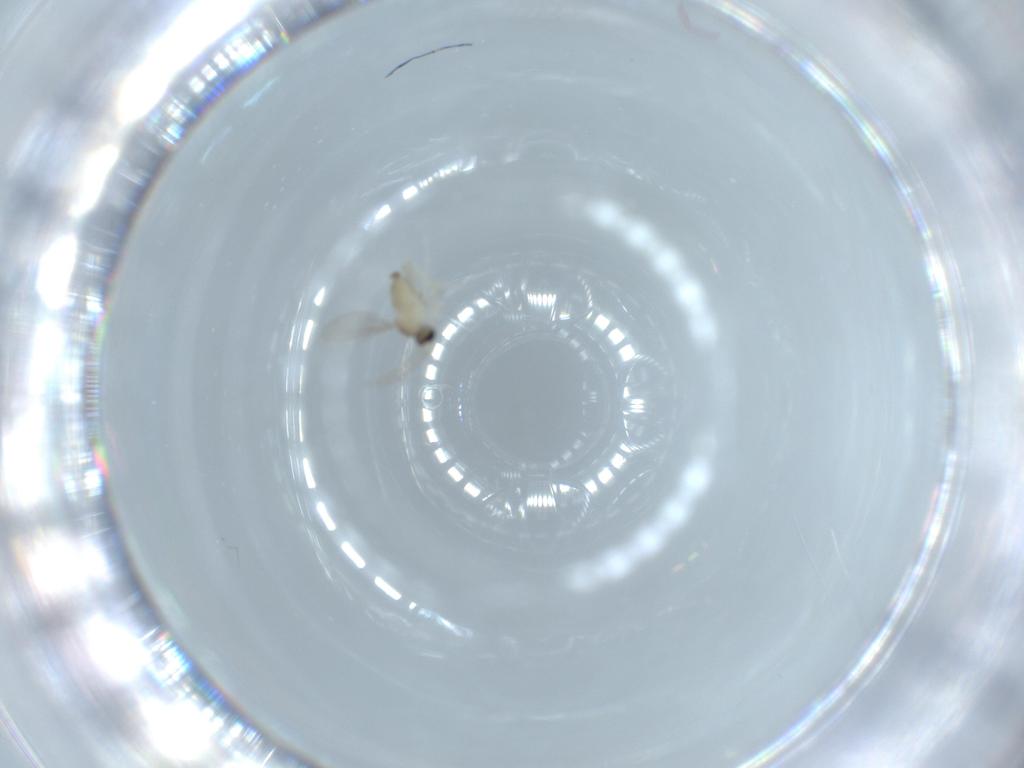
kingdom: Animalia
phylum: Arthropoda
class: Insecta
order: Diptera
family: Cecidomyiidae
